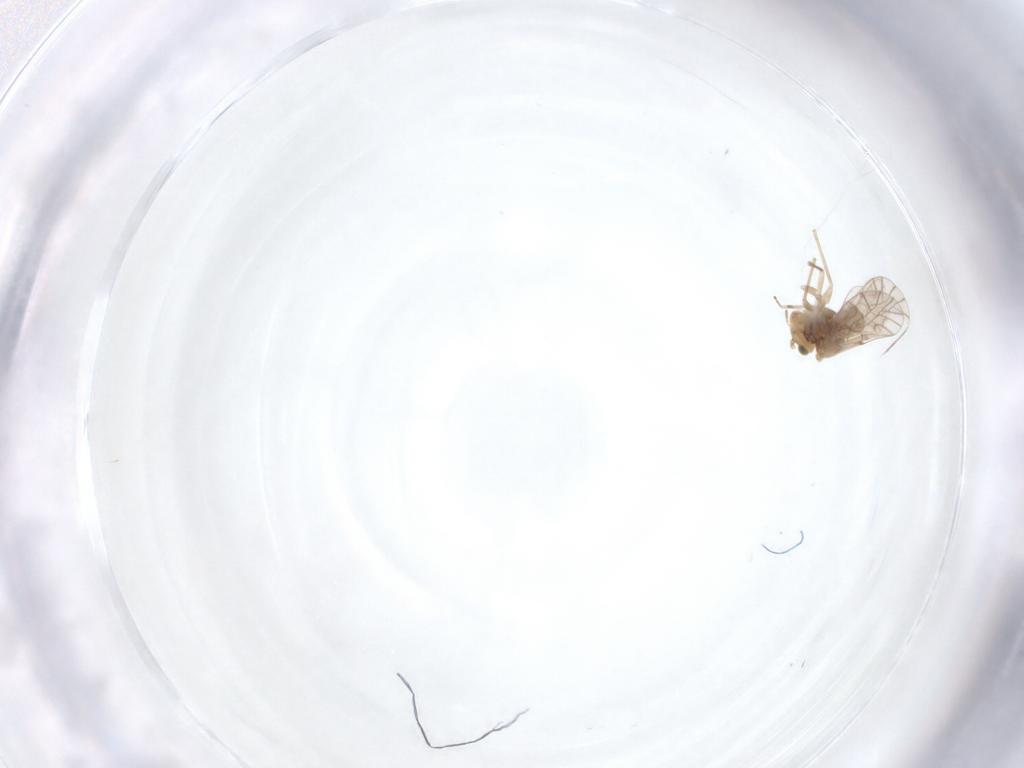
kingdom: Animalia
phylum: Arthropoda
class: Insecta
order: Psocodea
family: Lachesillidae
